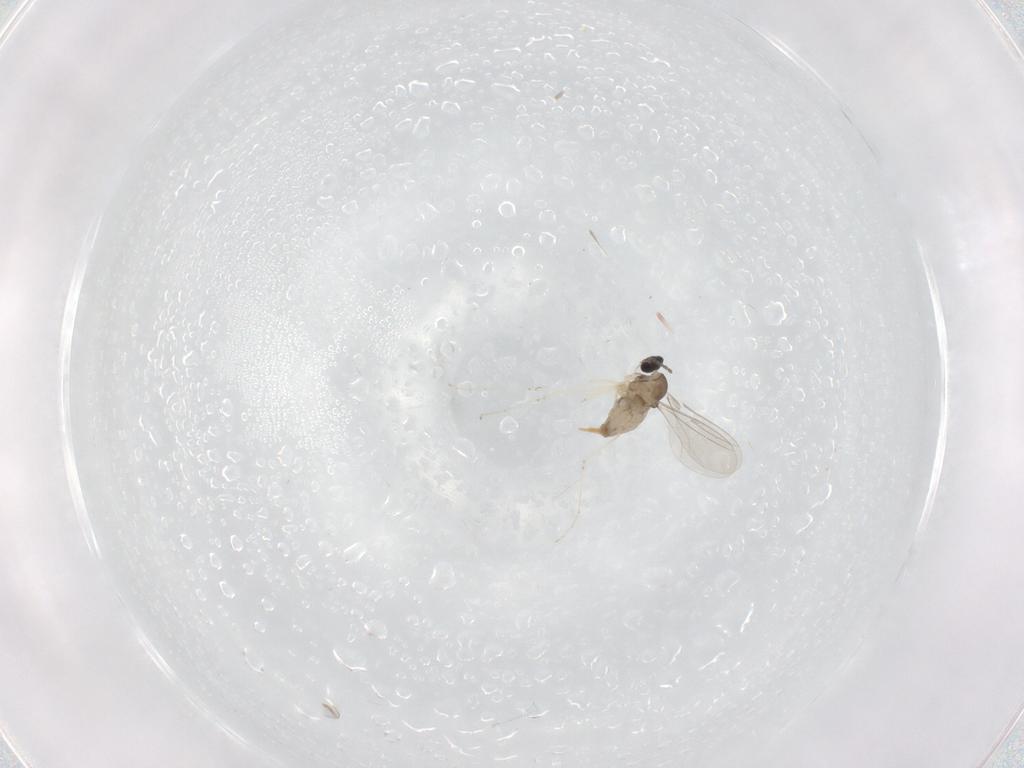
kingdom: Animalia
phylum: Arthropoda
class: Insecta
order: Diptera
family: Cecidomyiidae
